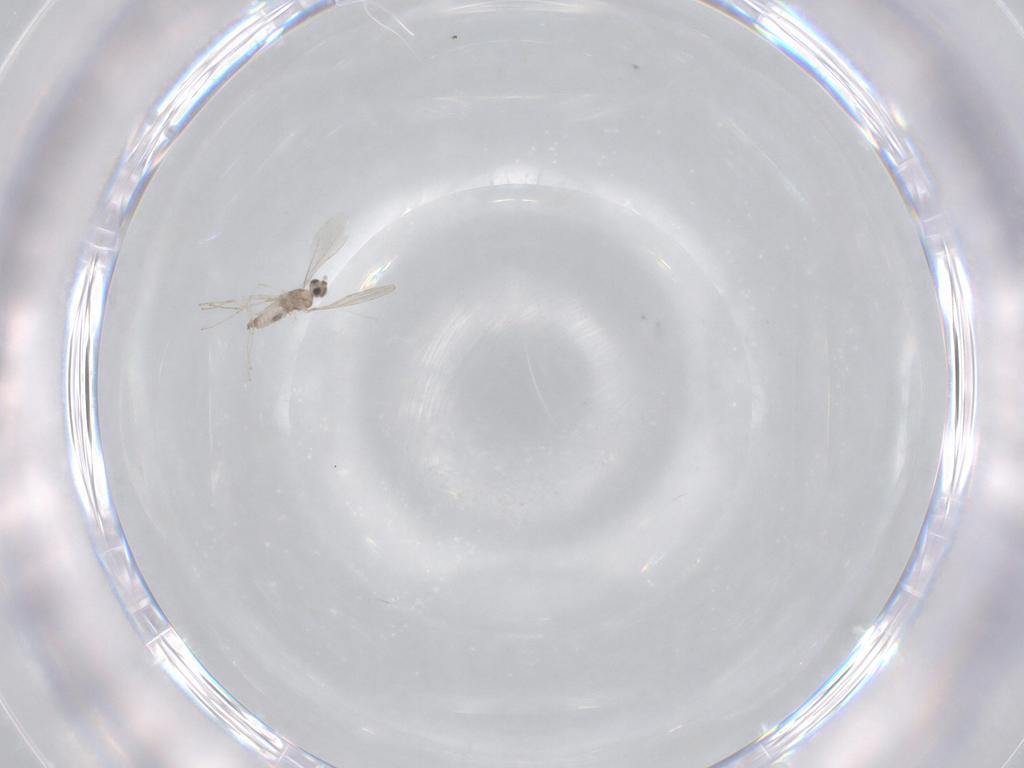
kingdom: Animalia
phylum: Arthropoda
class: Insecta
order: Diptera
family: Cecidomyiidae
